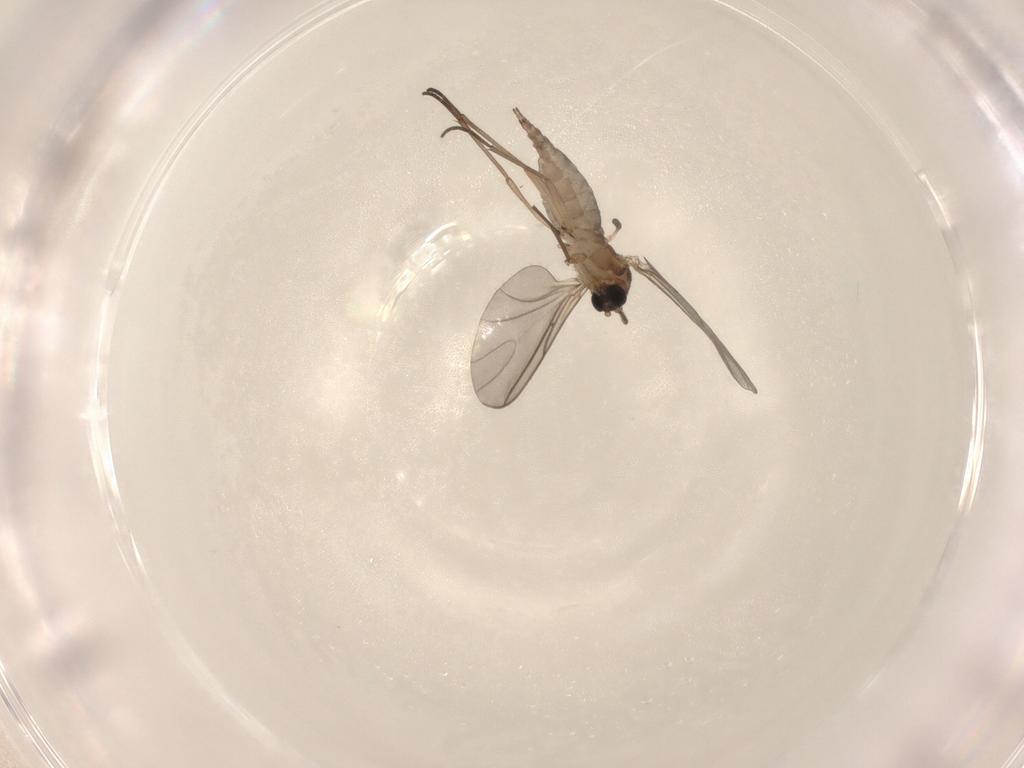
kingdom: Animalia
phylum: Arthropoda
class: Insecta
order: Diptera
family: Sciaridae
